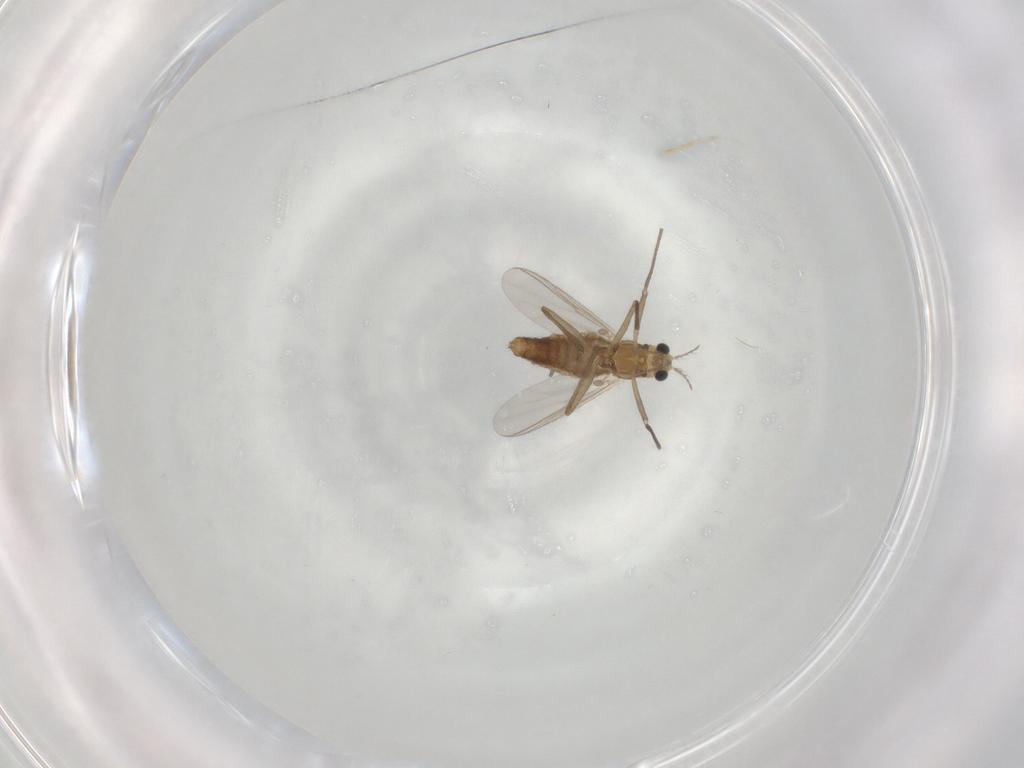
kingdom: Animalia
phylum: Arthropoda
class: Insecta
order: Diptera
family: Chironomidae
